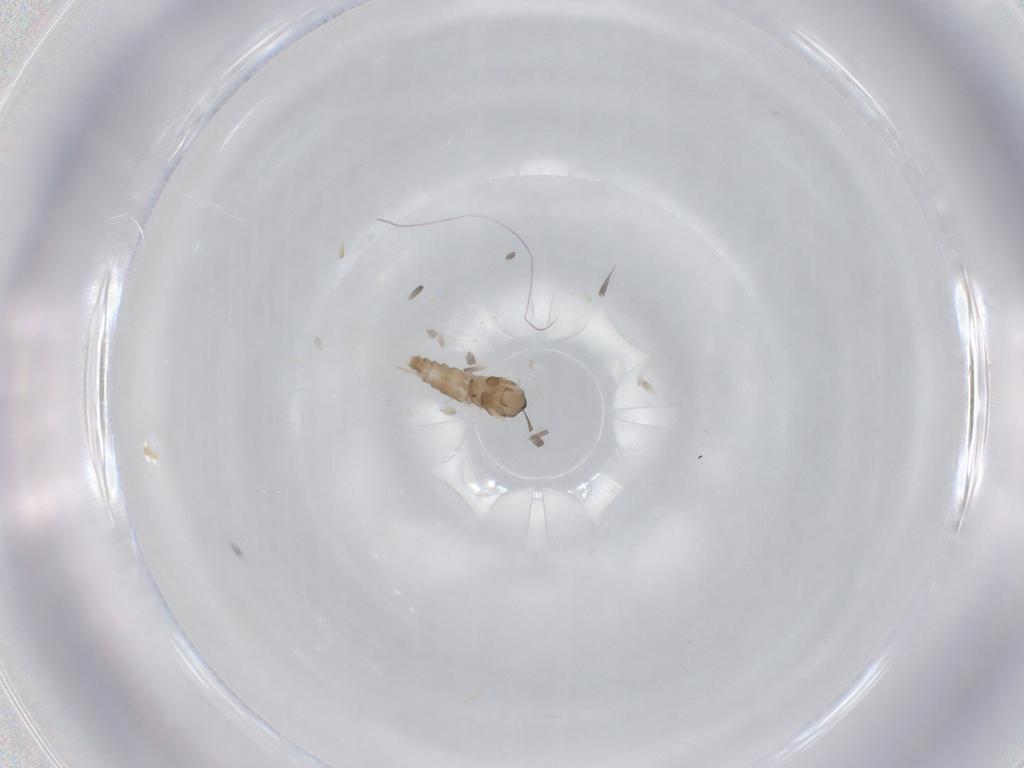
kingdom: Animalia
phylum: Arthropoda
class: Insecta
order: Diptera
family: Cecidomyiidae
